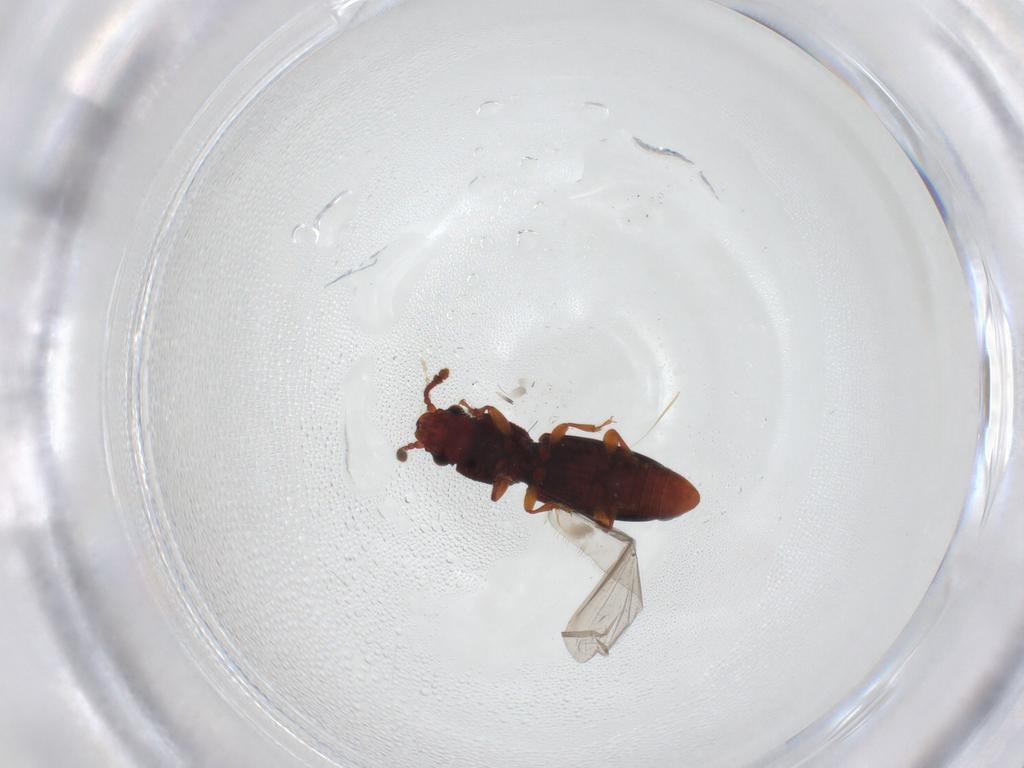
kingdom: Animalia
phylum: Arthropoda
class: Insecta
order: Coleoptera
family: Monotomidae
